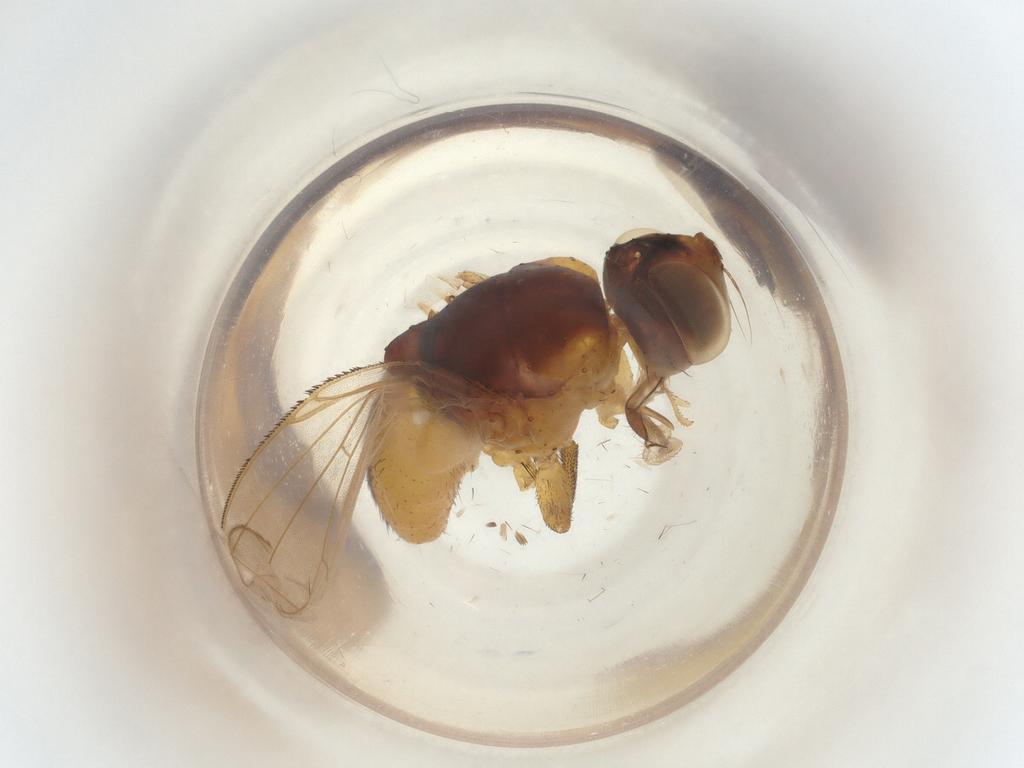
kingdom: Animalia
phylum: Arthropoda
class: Insecta
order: Diptera
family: Muscidae
